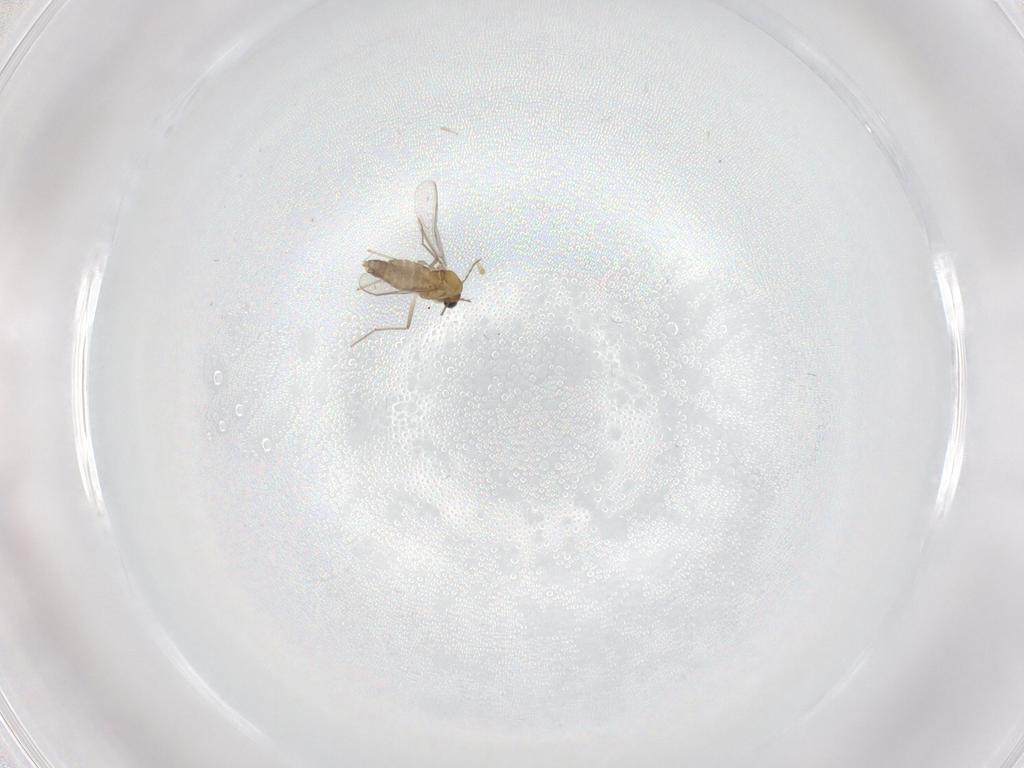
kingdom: Animalia
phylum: Arthropoda
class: Insecta
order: Diptera
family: Chironomidae
